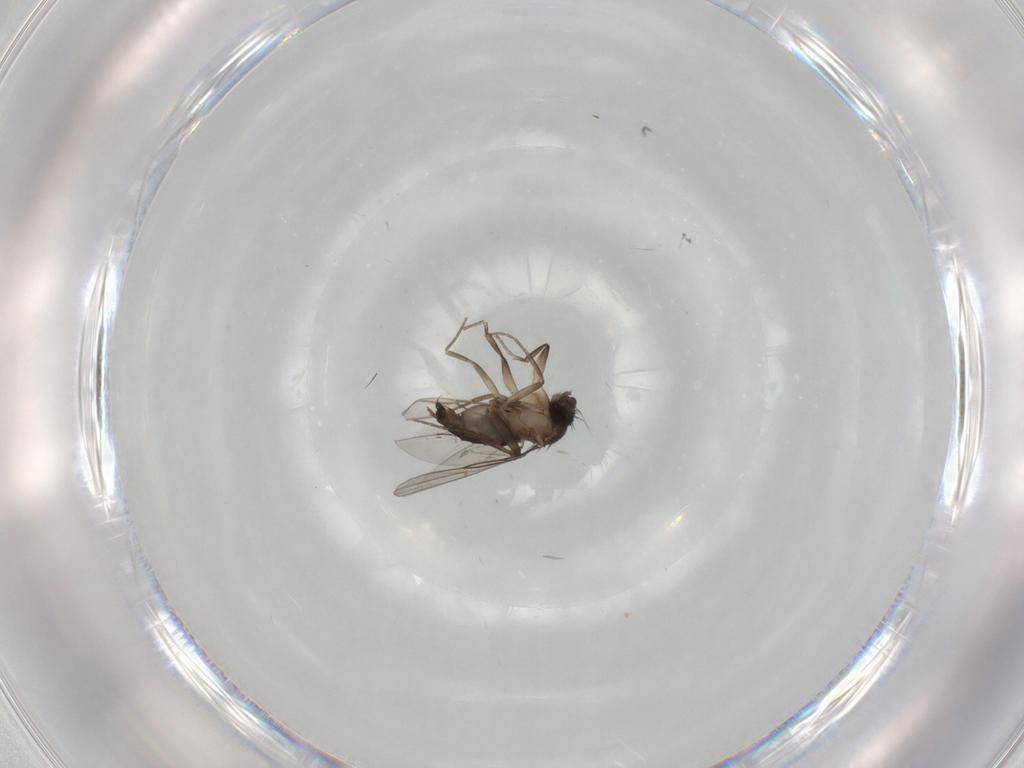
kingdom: Animalia
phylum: Arthropoda
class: Insecta
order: Diptera
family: Phoridae
